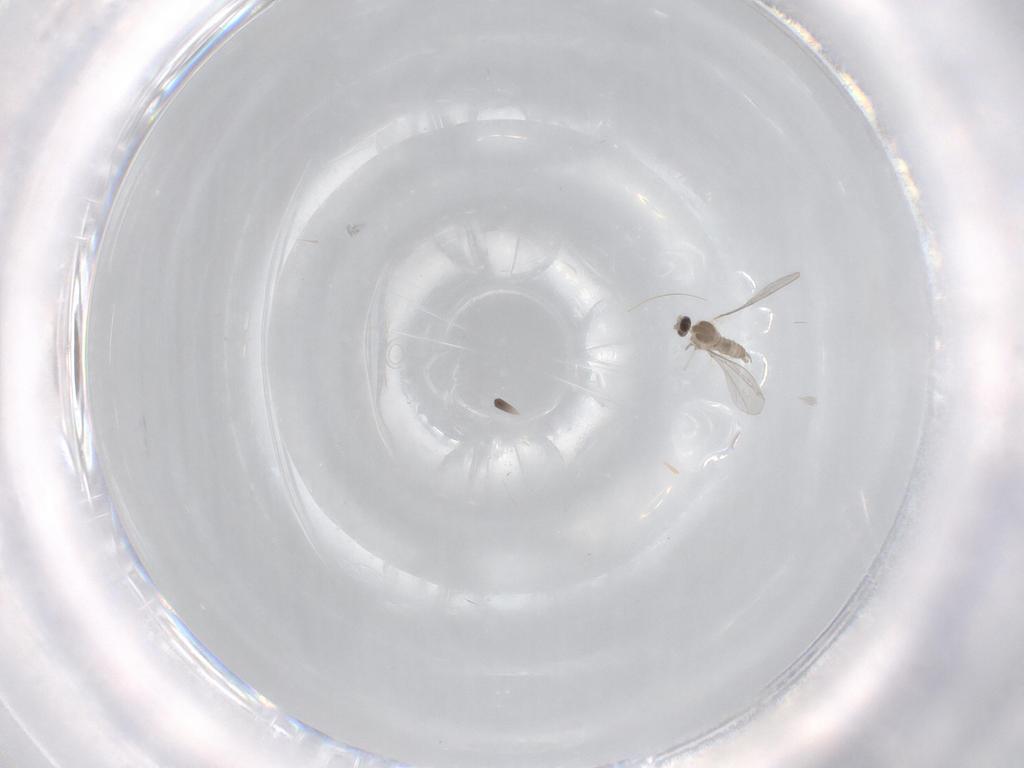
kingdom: Animalia
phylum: Arthropoda
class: Insecta
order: Diptera
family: Cecidomyiidae
